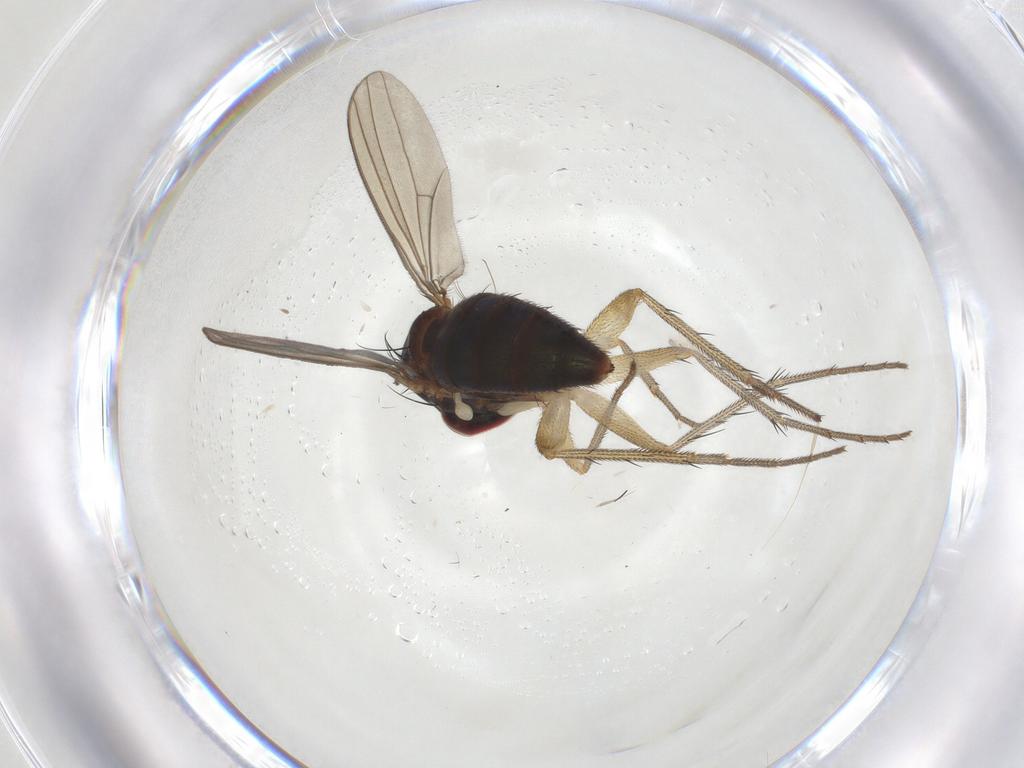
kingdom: Animalia
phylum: Arthropoda
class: Insecta
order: Diptera
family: Dolichopodidae
